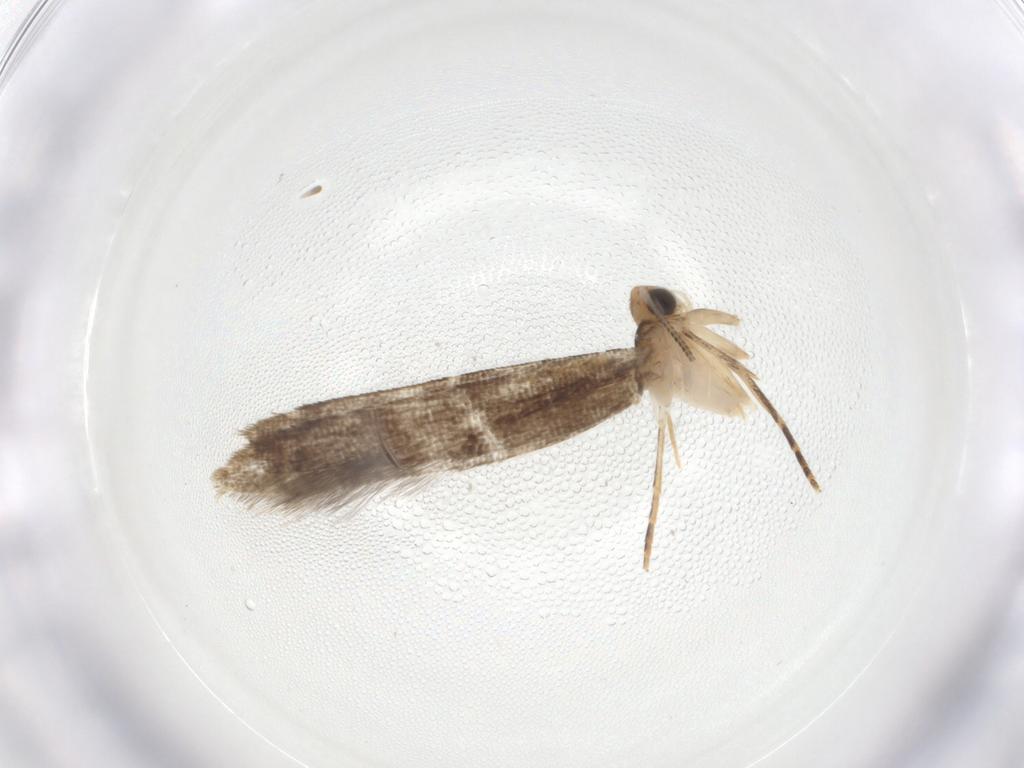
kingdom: Animalia
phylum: Arthropoda
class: Insecta
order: Lepidoptera
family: Tineidae
